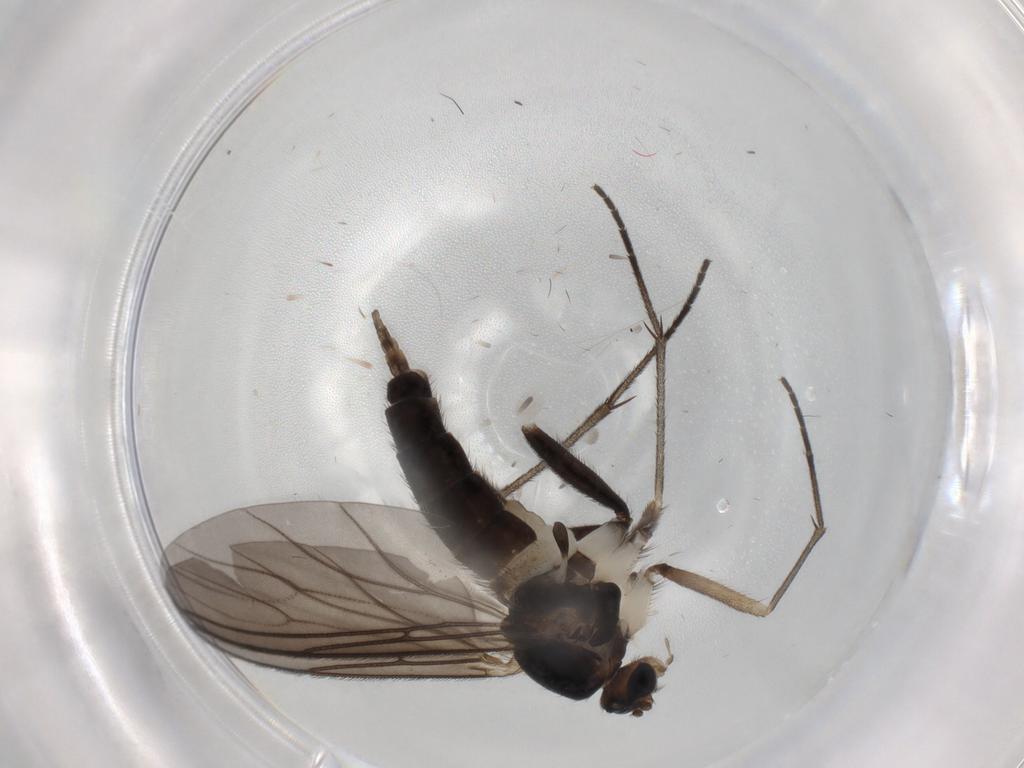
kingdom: Animalia
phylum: Arthropoda
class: Insecta
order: Diptera
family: Sciaridae
